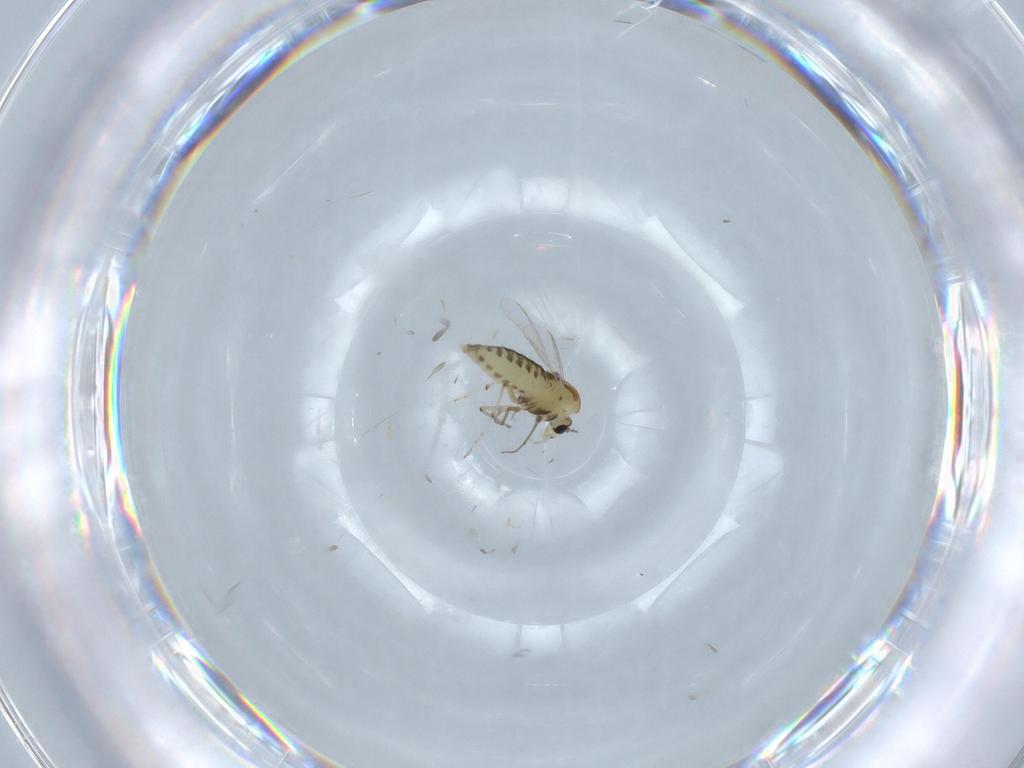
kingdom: Animalia
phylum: Arthropoda
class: Insecta
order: Diptera
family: Chironomidae
